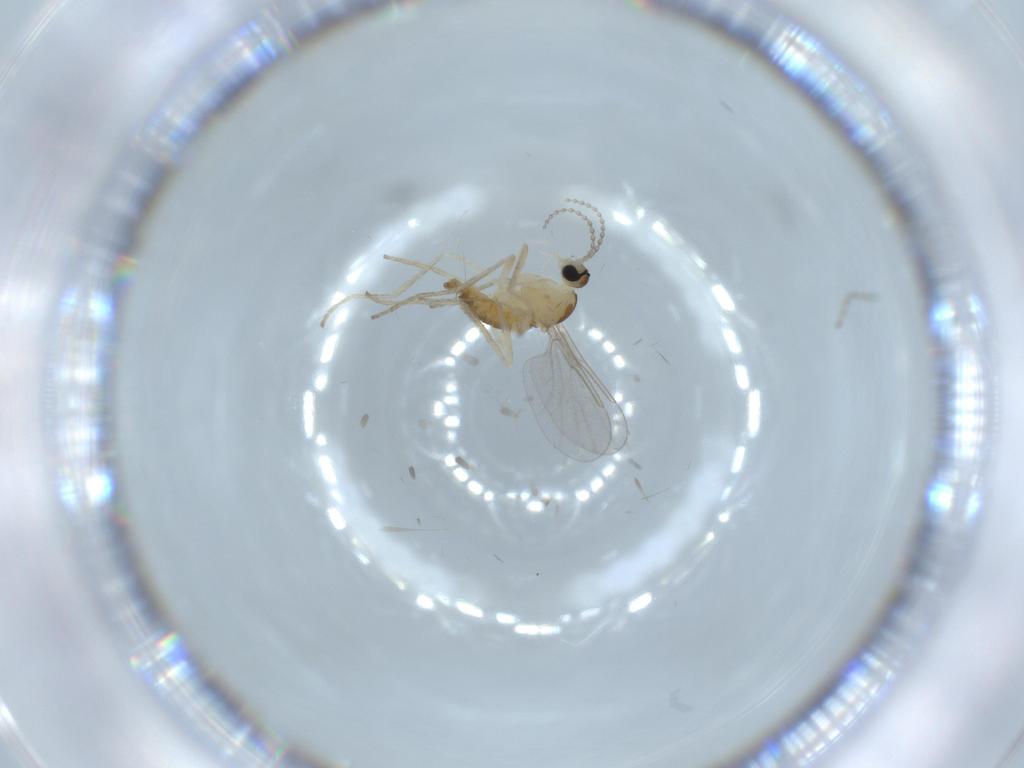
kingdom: Animalia
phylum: Arthropoda
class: Insecta
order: Diptera
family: Cecidomyiidae
